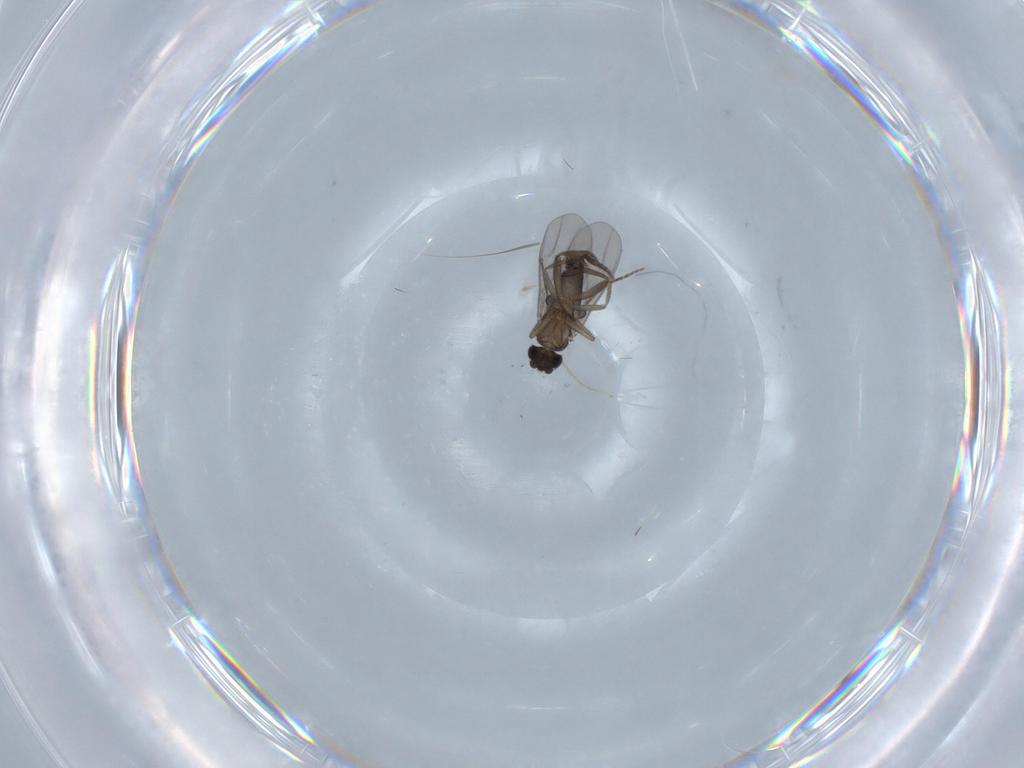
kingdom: Animalia
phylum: Arthropoda
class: Insecta
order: Diptera
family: Chironomidae
